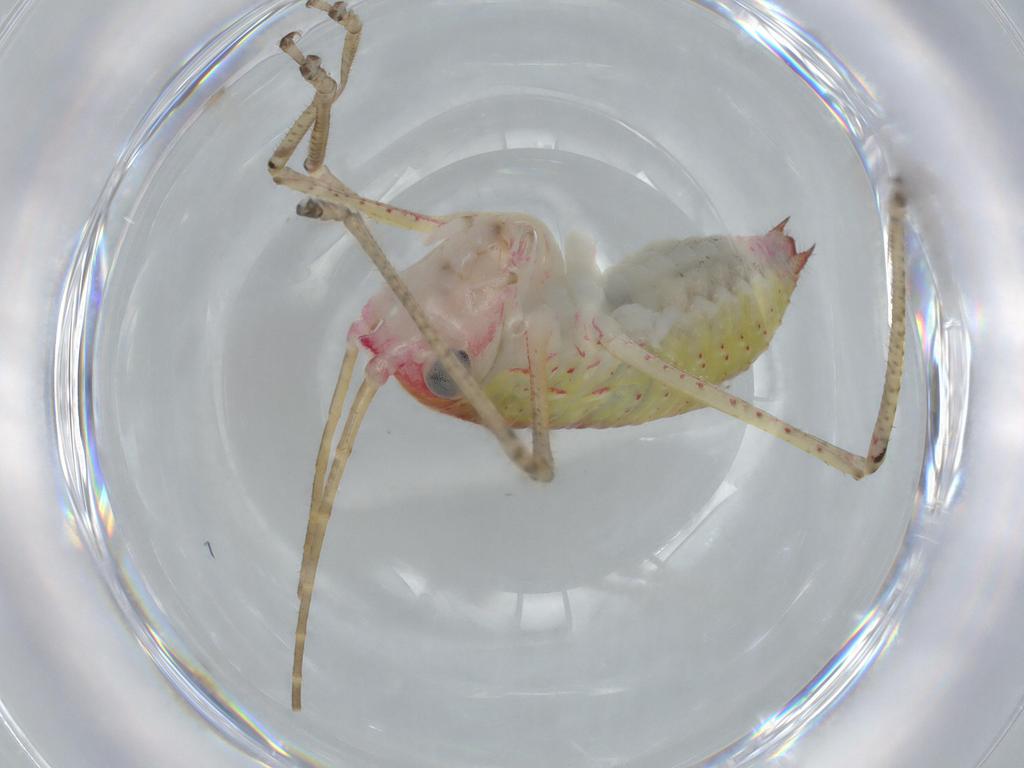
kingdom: Animalia
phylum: Arthropoda
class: Insecta
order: Orthoptera
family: Tettigoniidae
